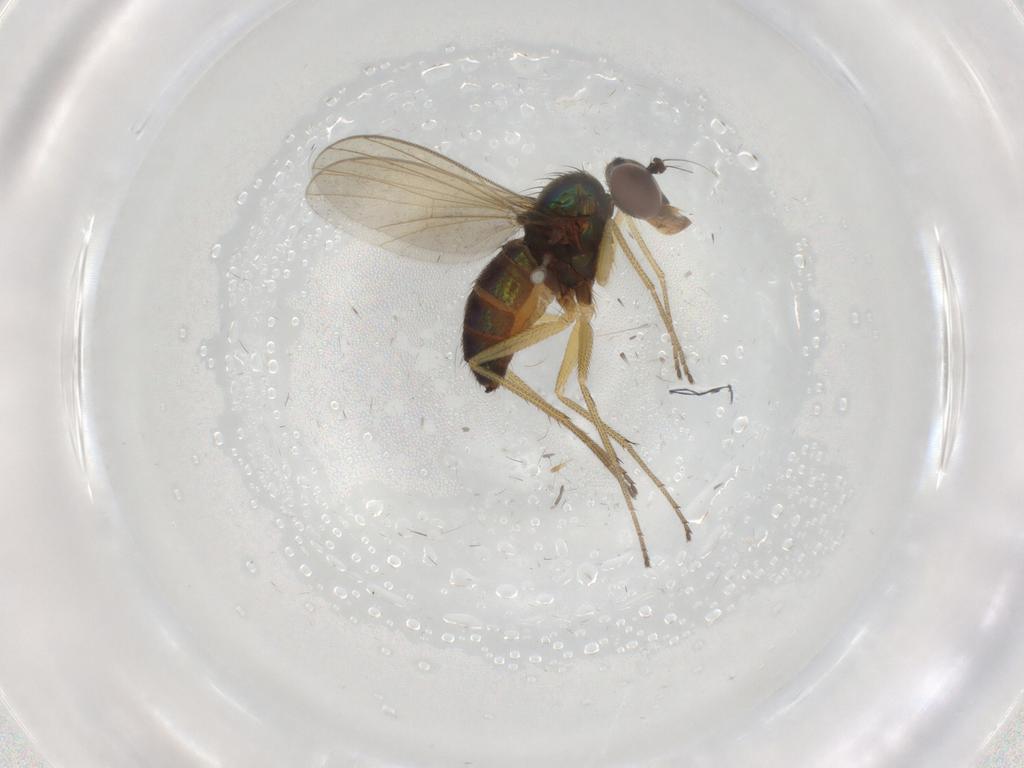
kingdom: Animalia
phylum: Arthropoda
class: Insecta
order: Diptera
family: Dolichopodidae
